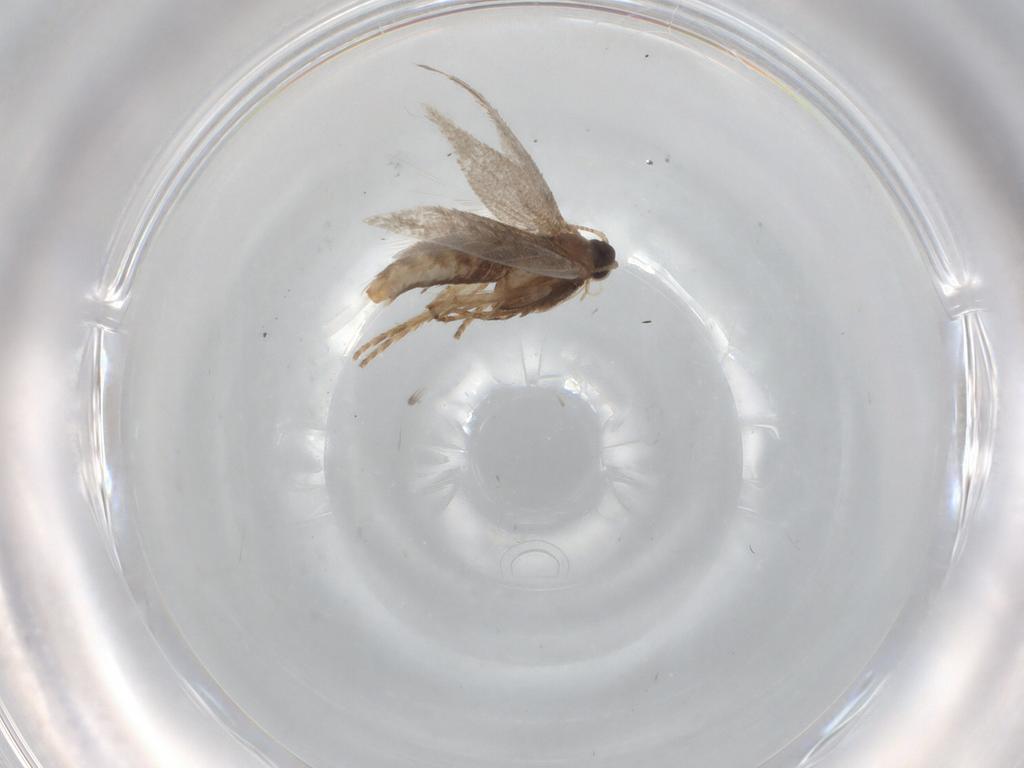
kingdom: Animalia
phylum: Arthropoda
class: Insecta
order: Lepidoptera
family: Nepticulidae
